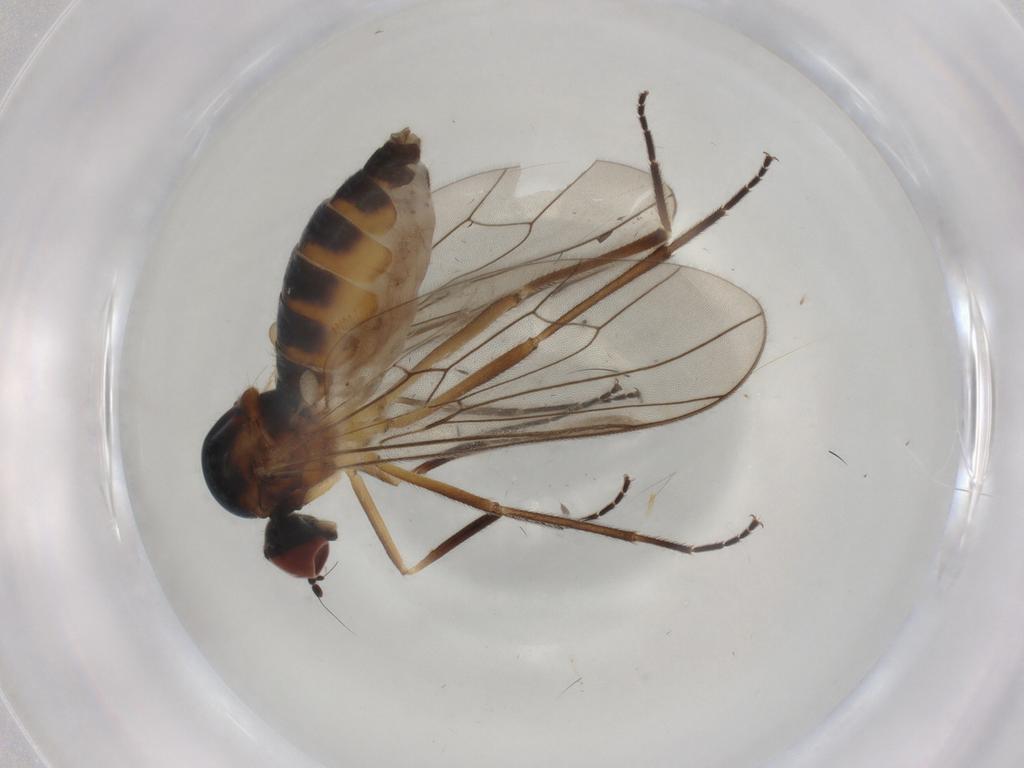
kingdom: Animalia
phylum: Arthropoda
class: Insecta
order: Diptera
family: Hybotidae
